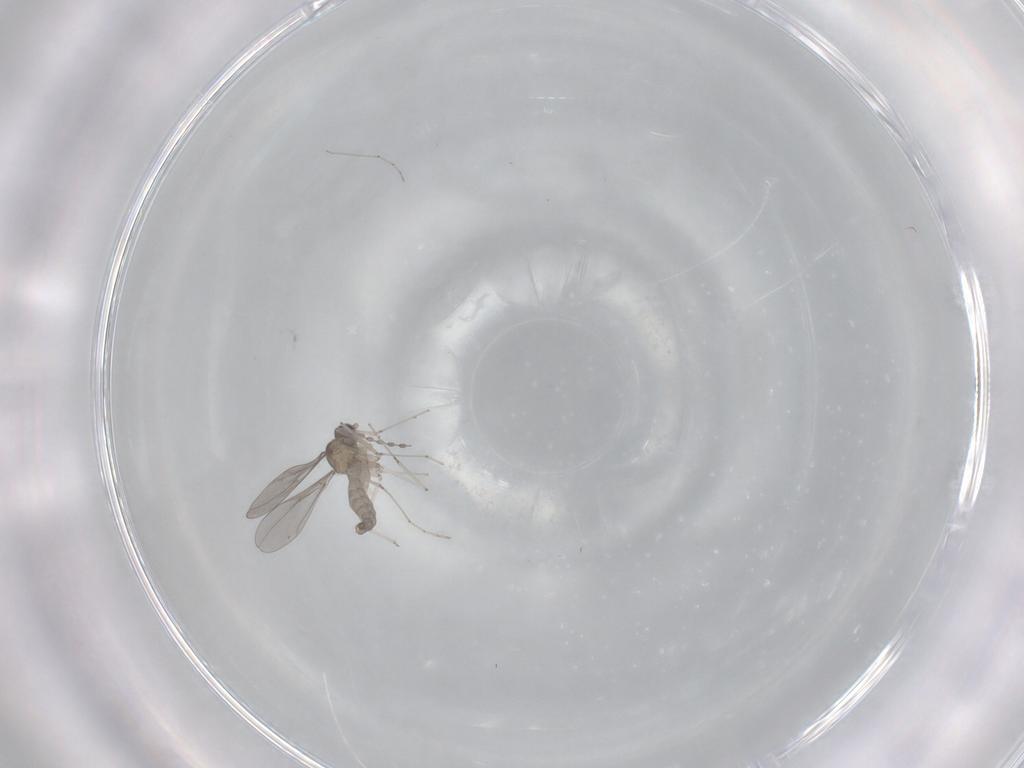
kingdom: Animalia
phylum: Arthropoda
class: Insecta
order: Diptera
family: Cecidomyiidae
